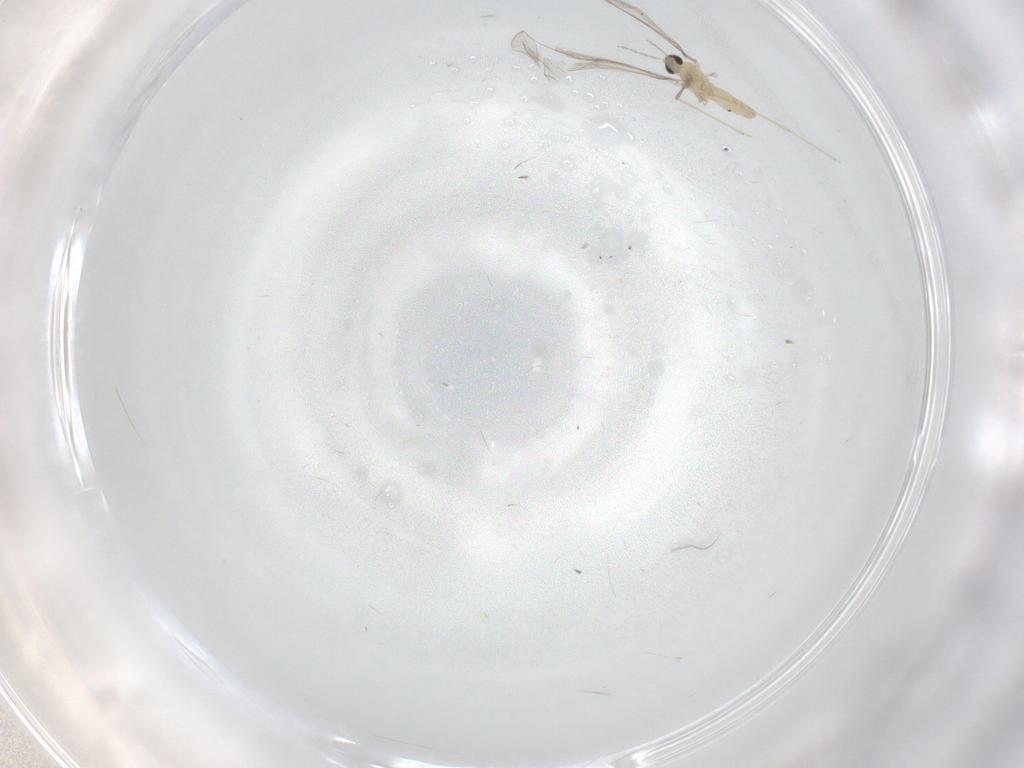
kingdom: Animalia
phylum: Arthropoda
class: Insecta
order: Diptera
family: Cecidomyiidae
